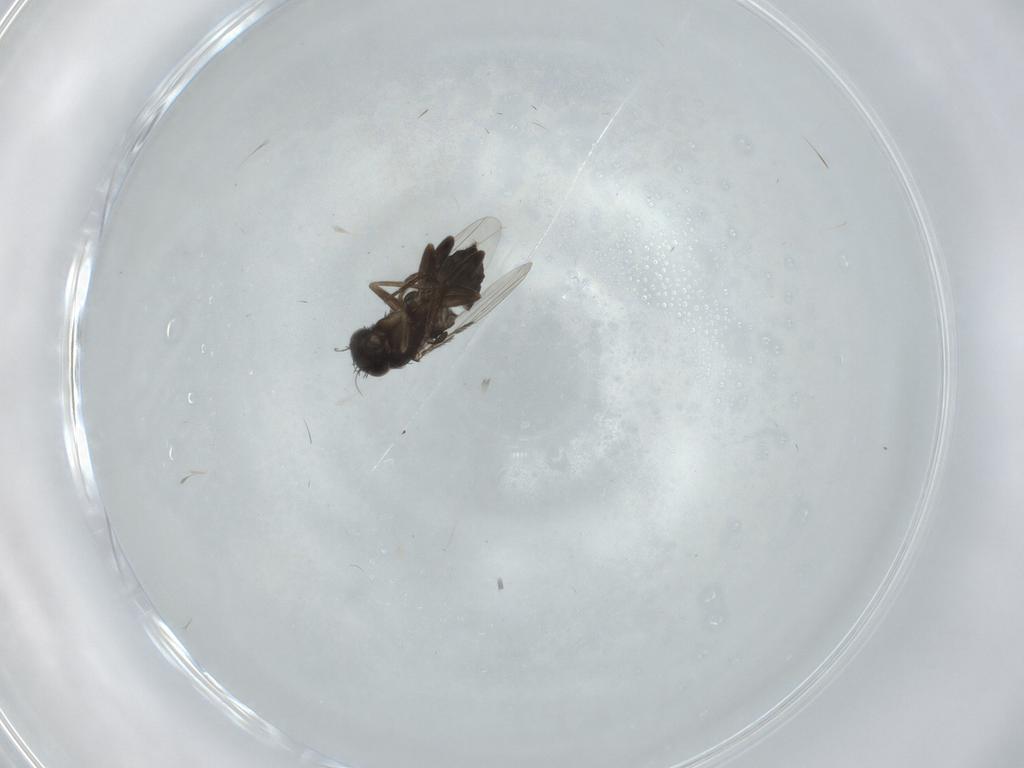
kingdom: Animalia
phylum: Arthropoda
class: Insecta
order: Diptera
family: Phoridae
